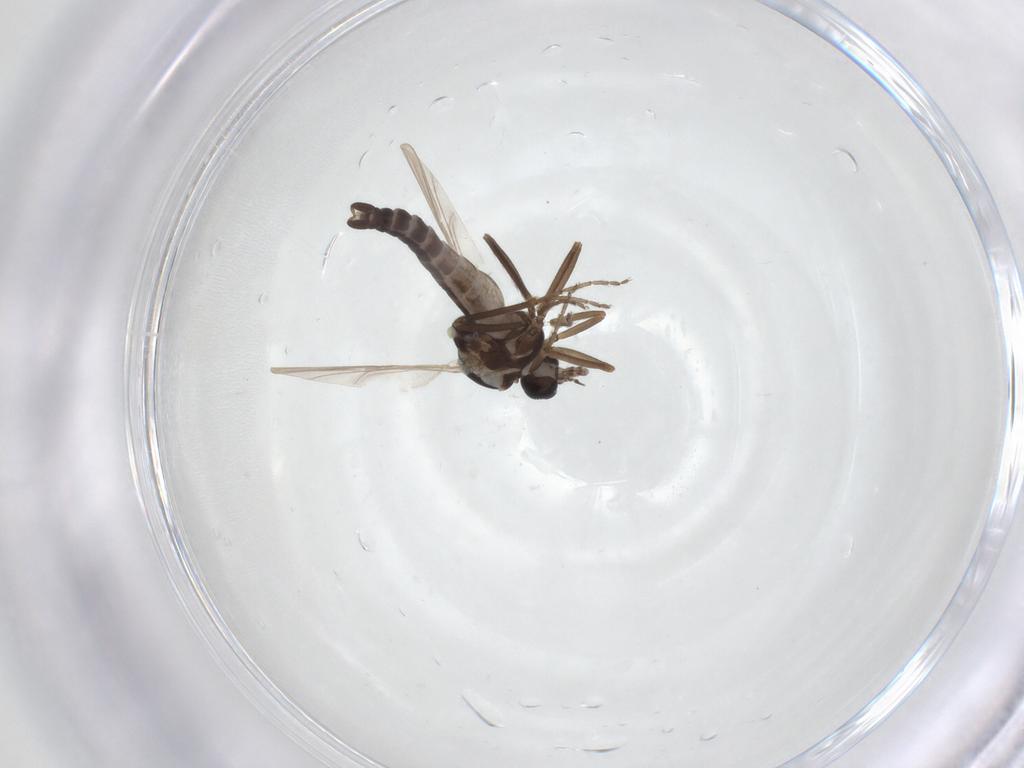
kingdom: Animalia
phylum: Arthropoda
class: Insecta
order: Diptera
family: Ceratopogonidae
